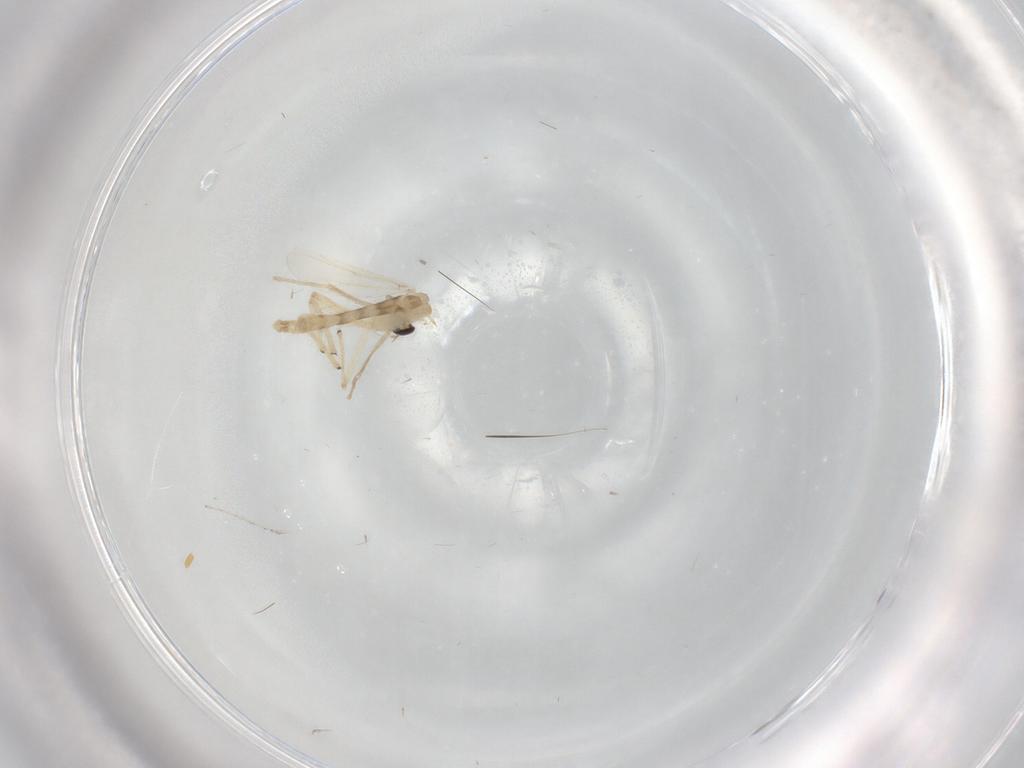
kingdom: Animalia
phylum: Arthropoda
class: Insecta
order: Diptera
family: Chironomidae
